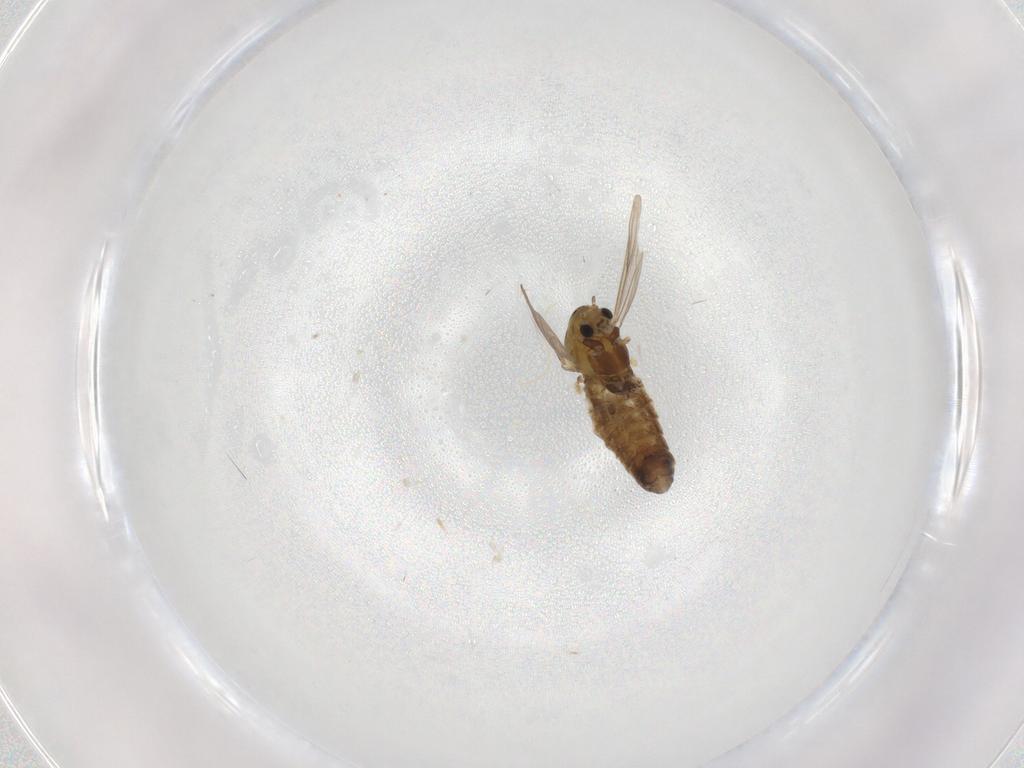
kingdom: Animalia
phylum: Arthropoda
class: Insecta
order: Diptera
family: Chironomidae
